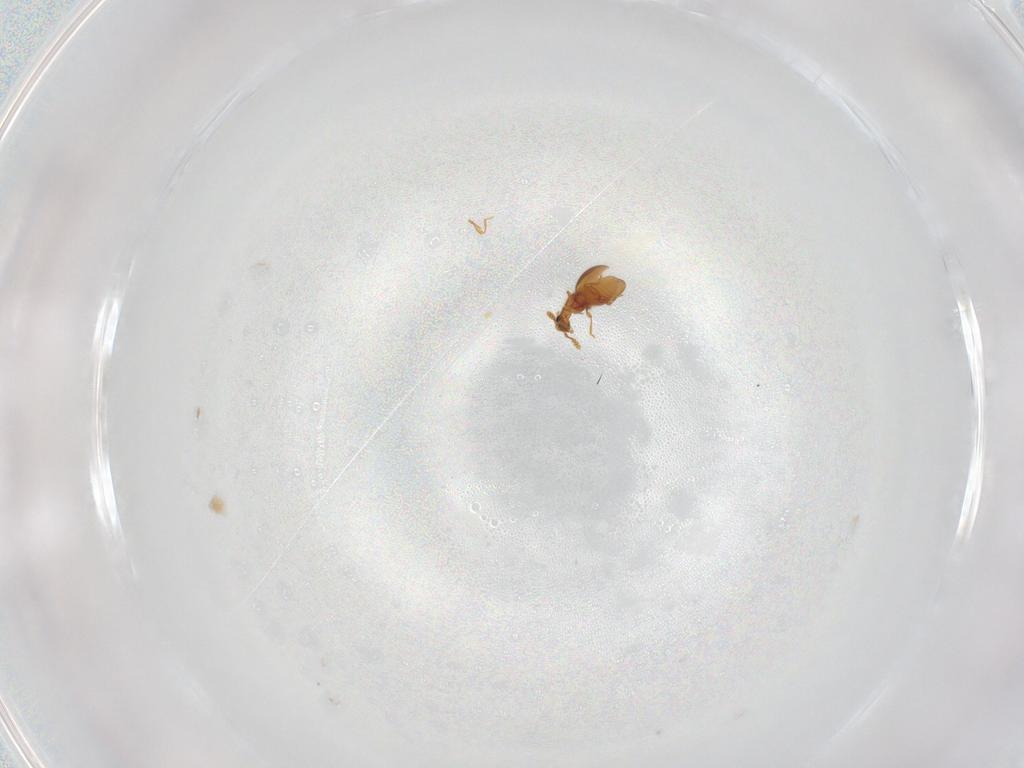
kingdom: Animalia
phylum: Arthropoda
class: Insecta
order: Coleoptera
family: Staphylinidae
